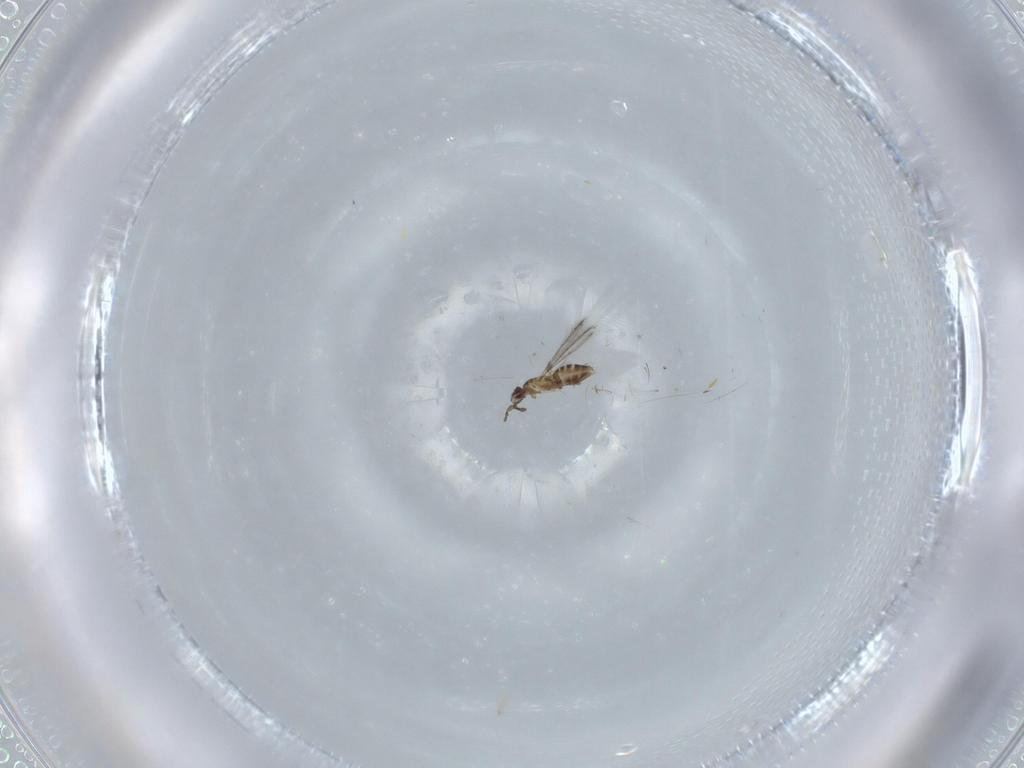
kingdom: Animalia
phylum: Arthropoda
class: Insecta
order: Hymenoptera
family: Mymaridae
